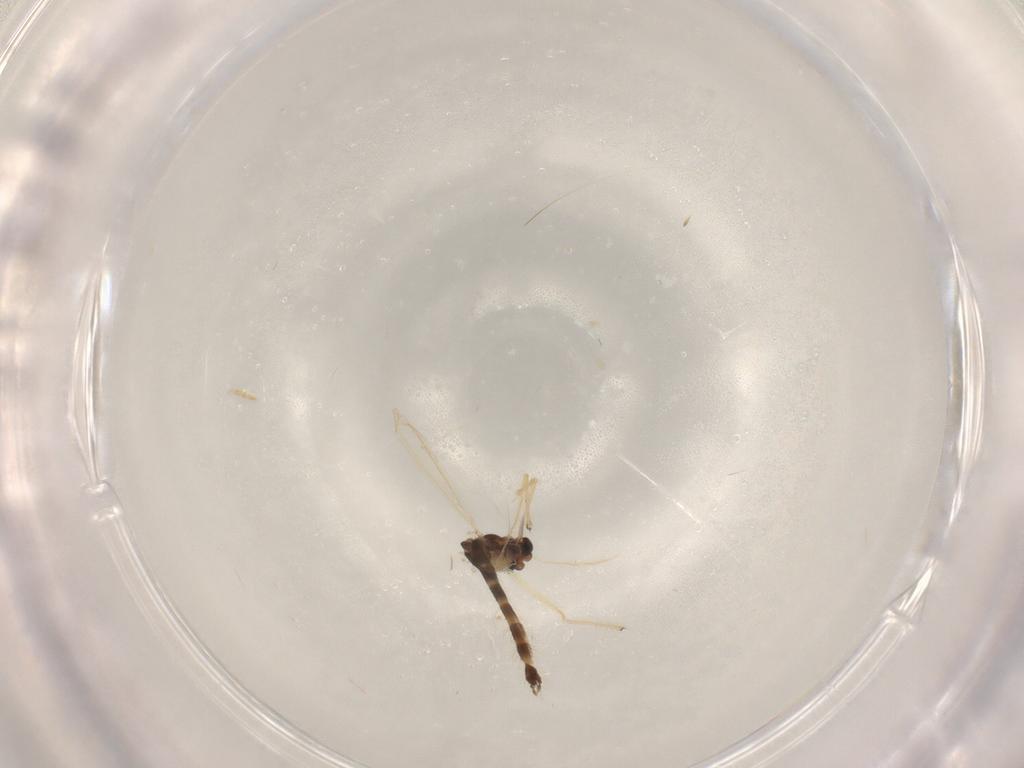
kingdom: Animalia
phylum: Arthropoda
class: Insecta
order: Diptera
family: Chironomidae
